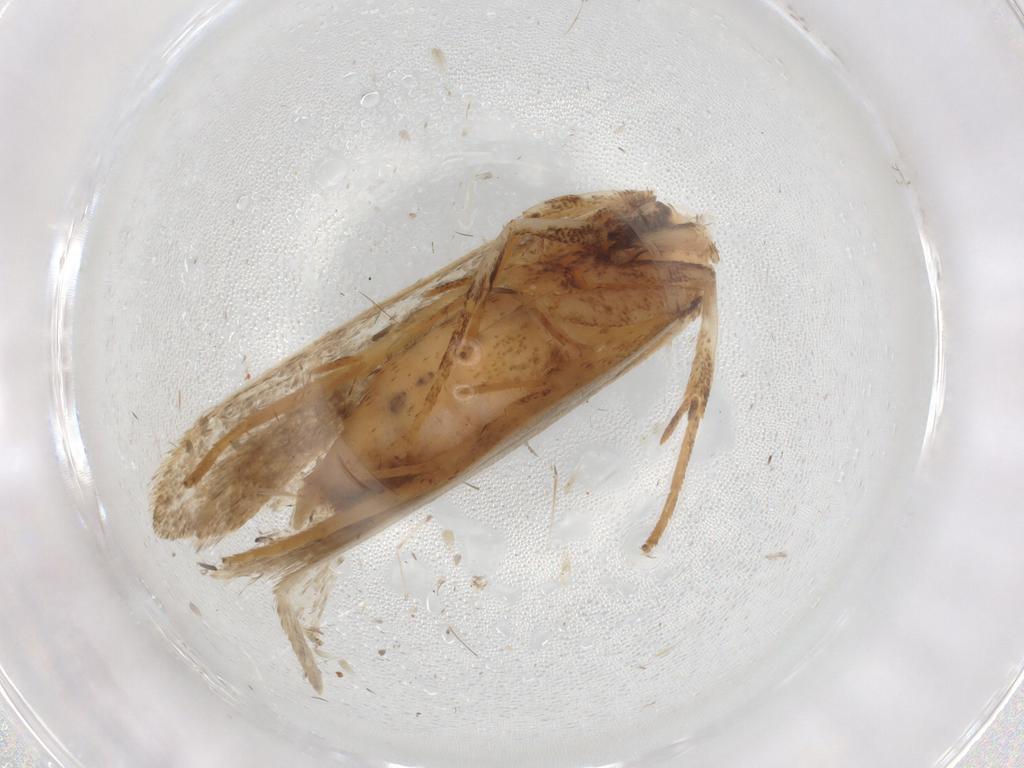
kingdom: Animalia
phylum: Arthropoda
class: Insecta
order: Lepidoptera
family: Gelechiidae
